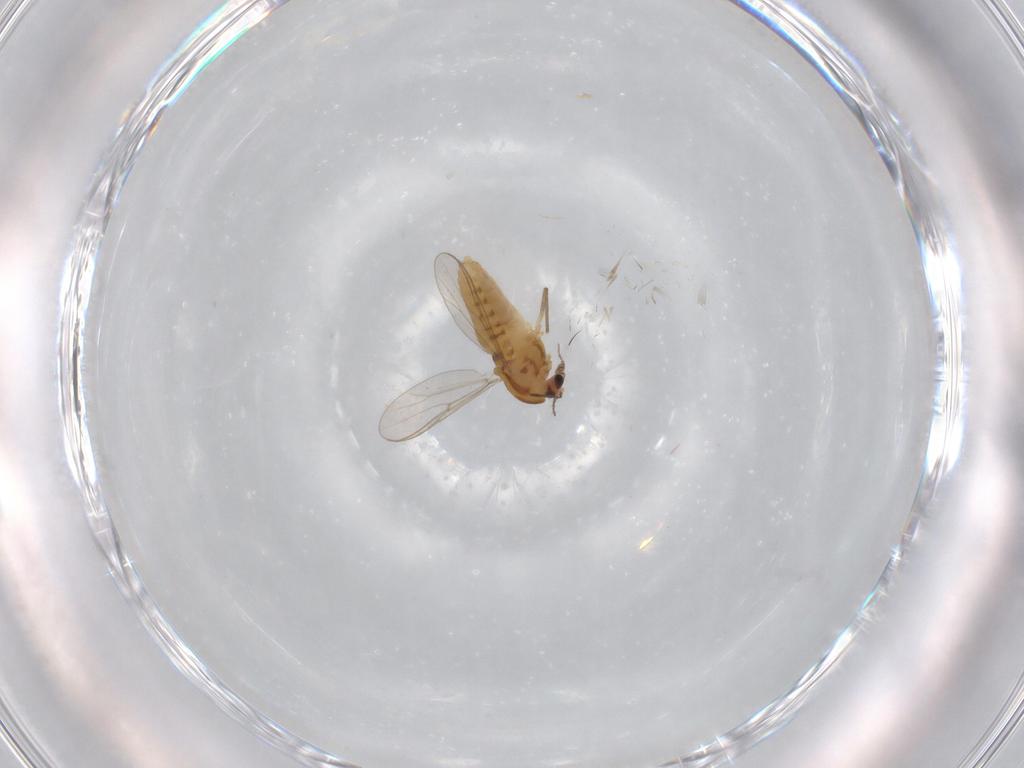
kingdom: Animalia
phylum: Arthropoda
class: Insecta
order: Diptera
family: Chironomidae
